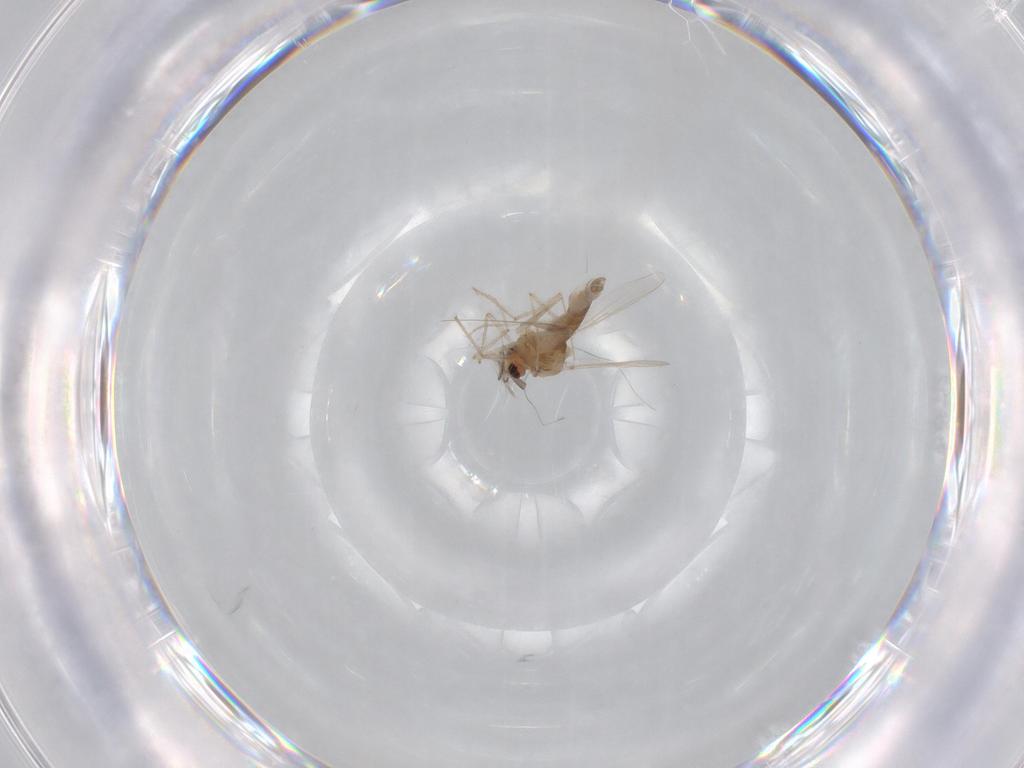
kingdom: Animalia
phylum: Arthropoda
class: Insecta
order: Diptera
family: Chironomidae
